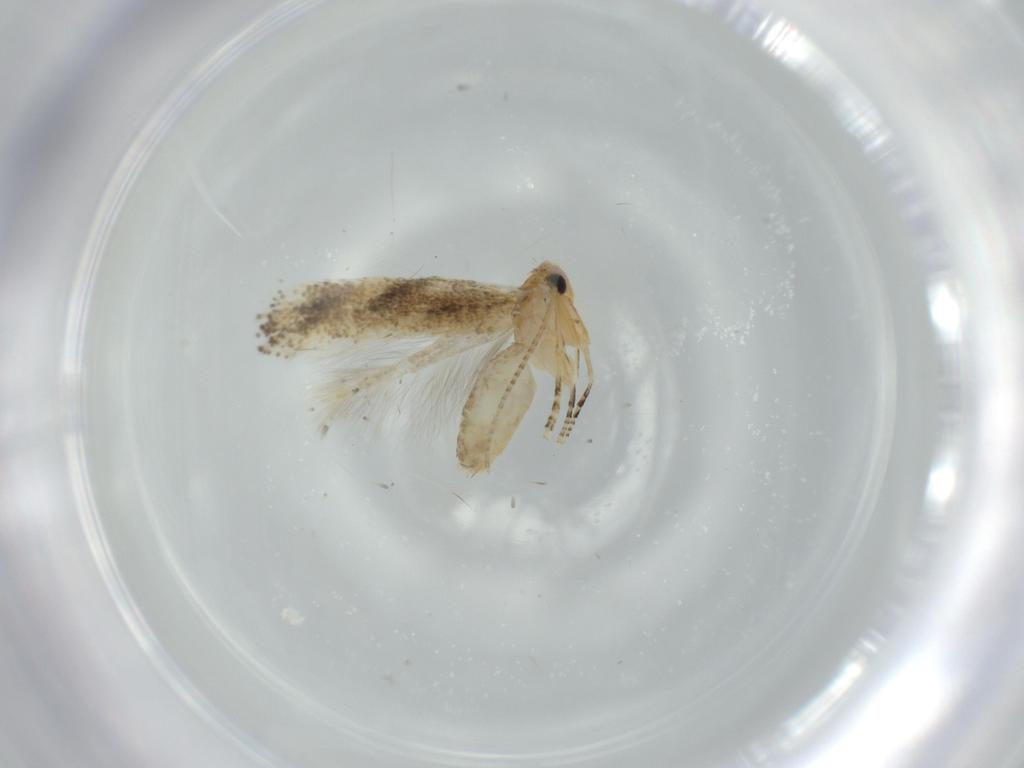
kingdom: Animalia
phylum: Arthropoda
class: Insecta
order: Lepidoptera
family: Bucculatricidae
